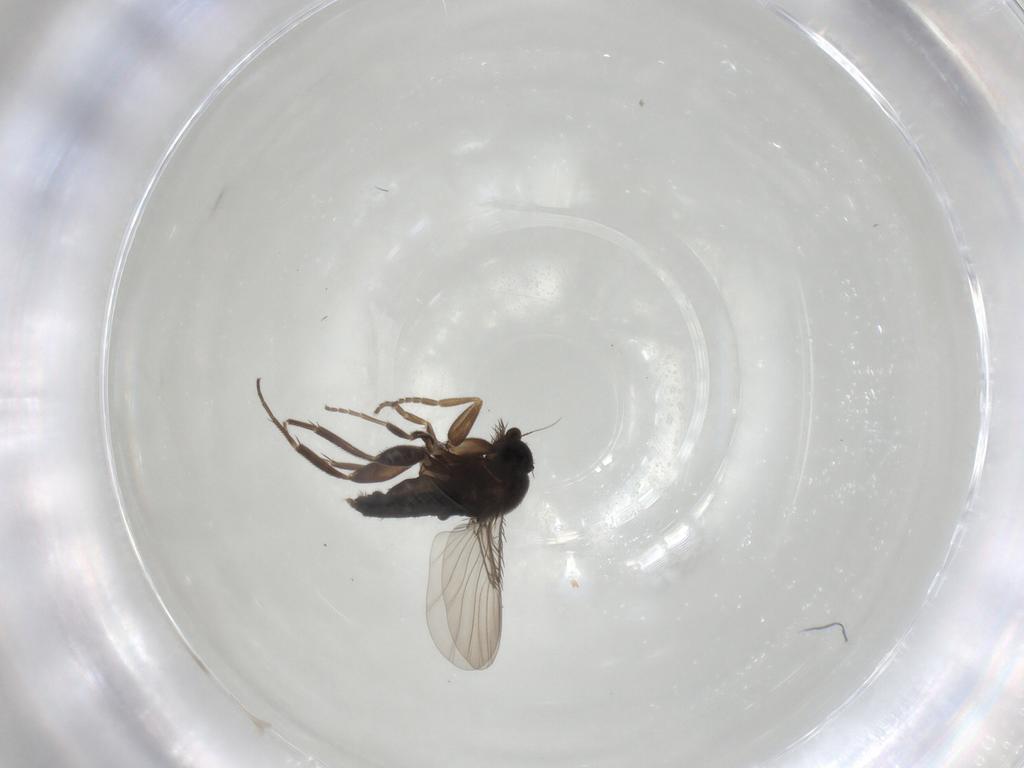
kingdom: Animalia
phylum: Arthropoda
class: Insecta
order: Diptera
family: Phoridae
